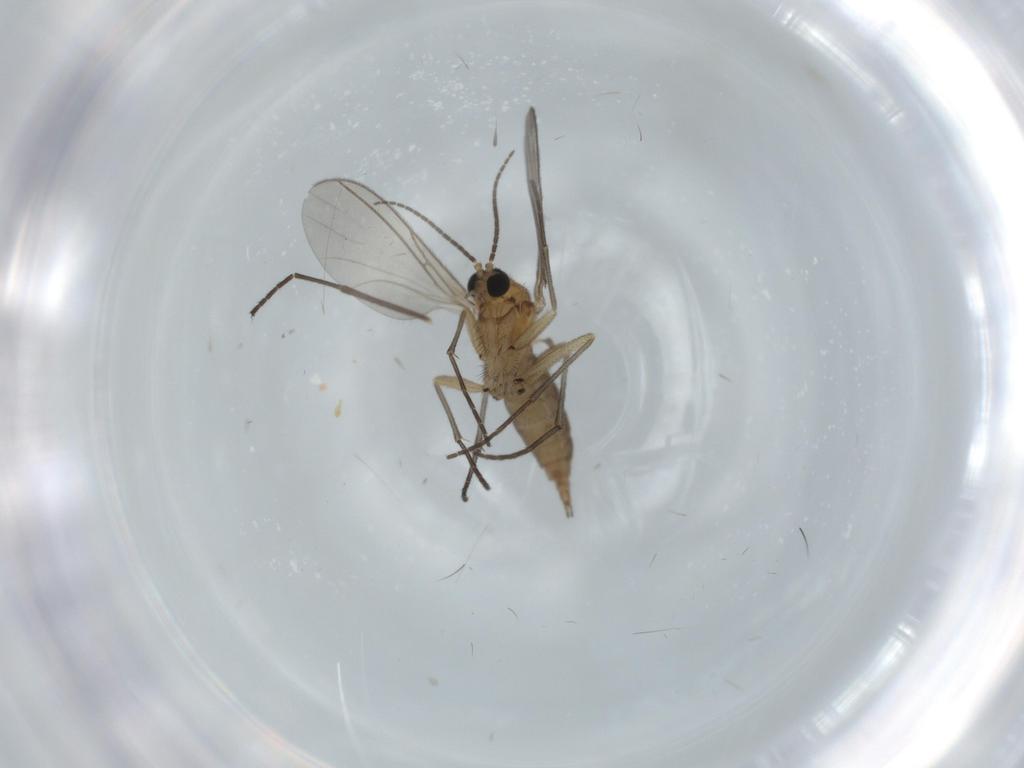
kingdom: Animalia
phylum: Arthropoda
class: Insecta
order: Diptera
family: Sciaridae
